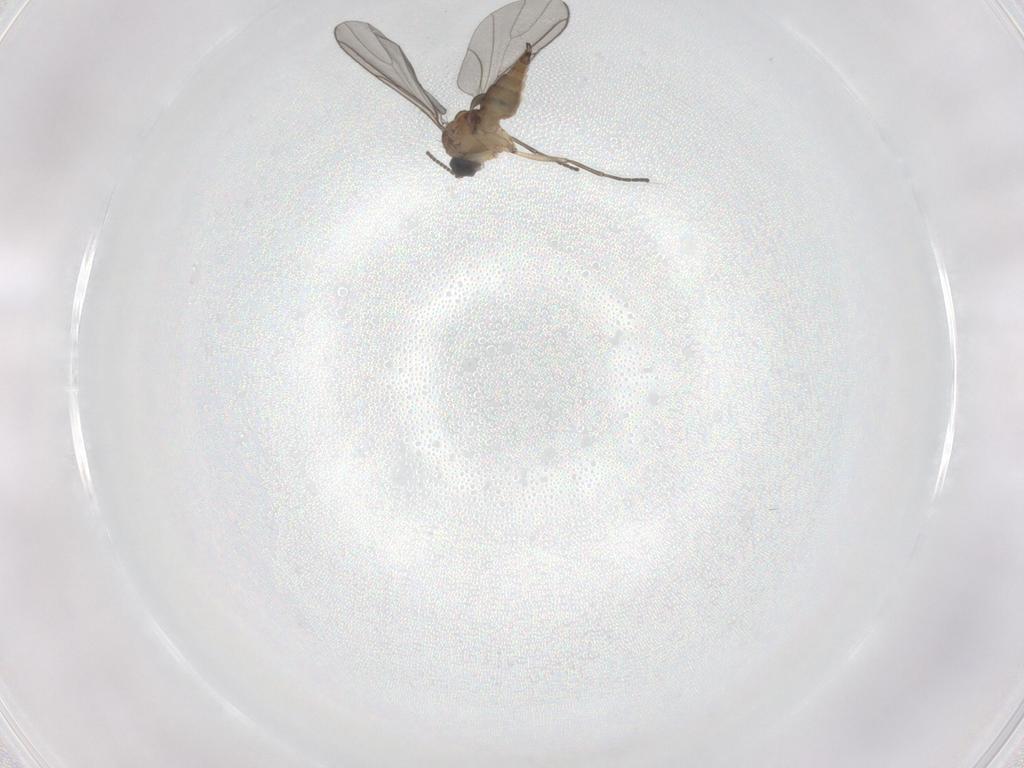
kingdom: Animalia
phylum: Arthropoda
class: Insecta
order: Diptera
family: Sciaridae
